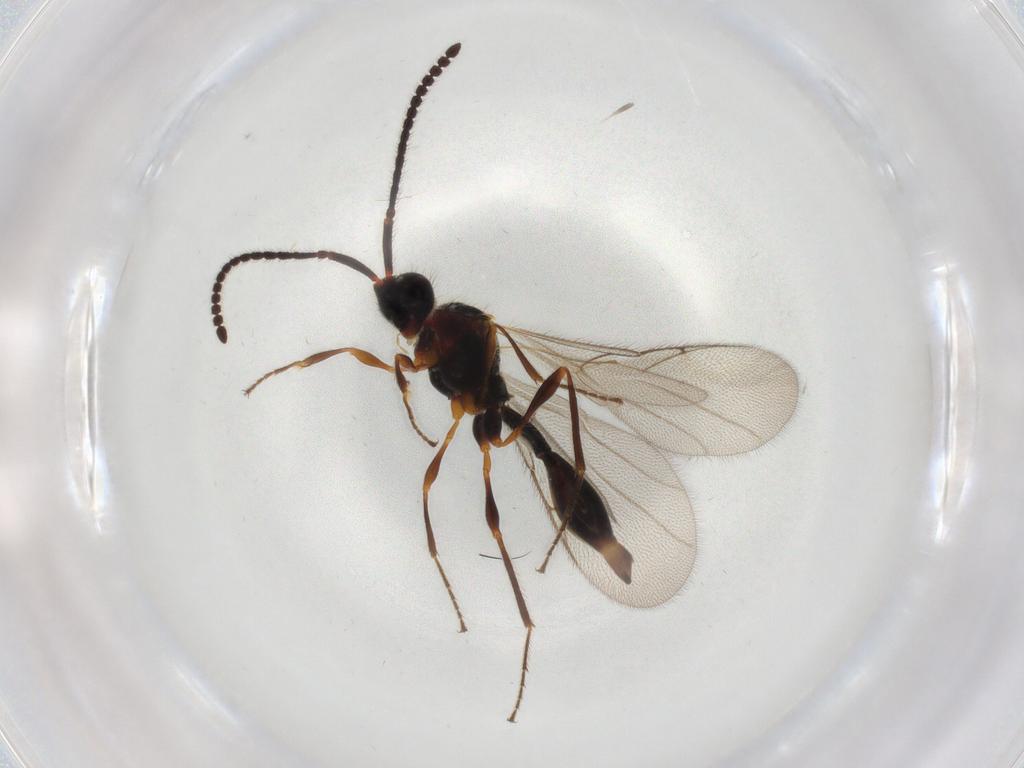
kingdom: Animalia
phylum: Arthropoda
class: Insecta
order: Hymenoptera
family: Diapriidae
